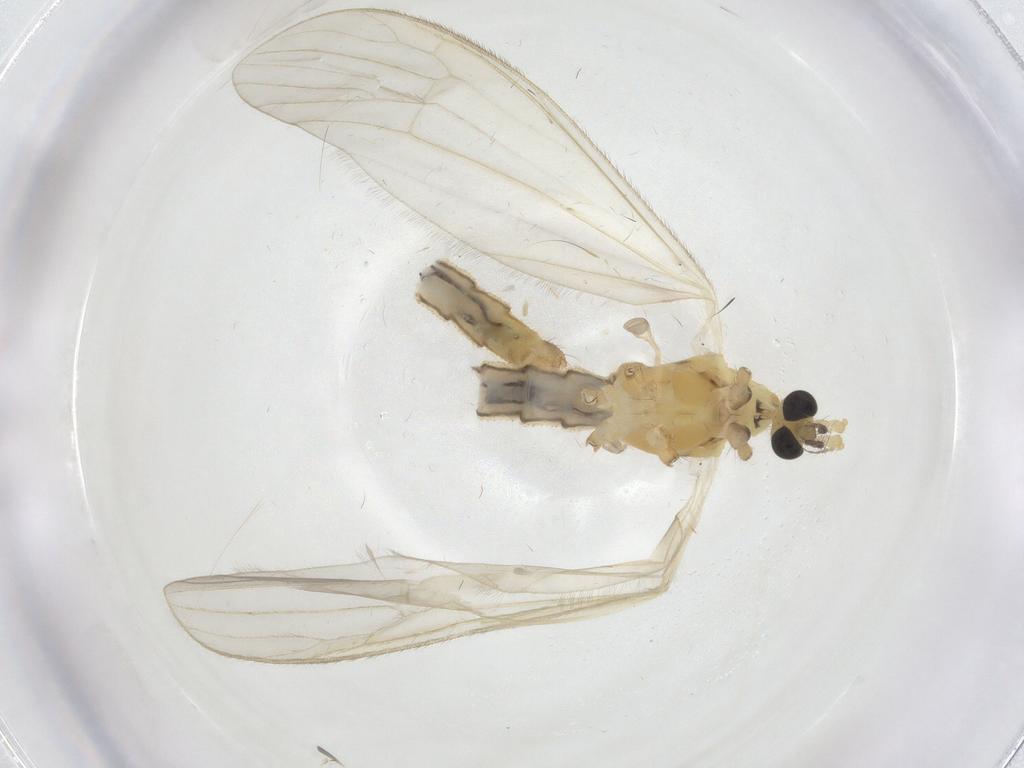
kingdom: Animalia
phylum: Arthropoda
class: Insecta
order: Diptera
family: Limoniidae
